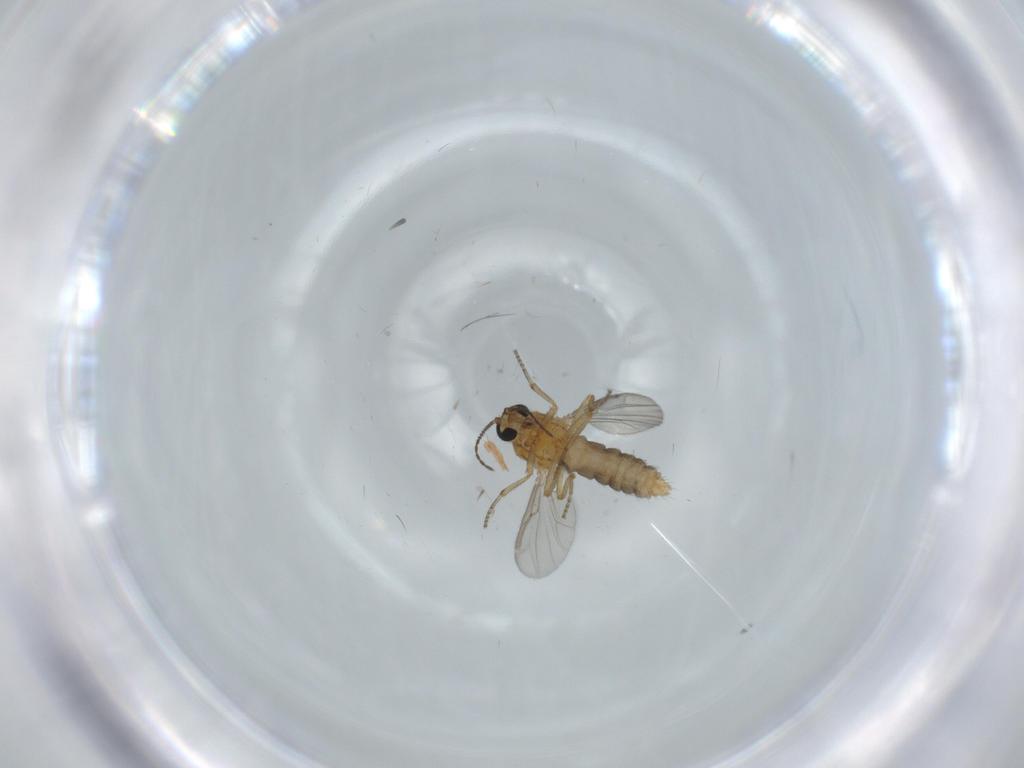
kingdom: Animalia
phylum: Arthropoda
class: Insecta
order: Diptera
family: Ceratopogonidae
